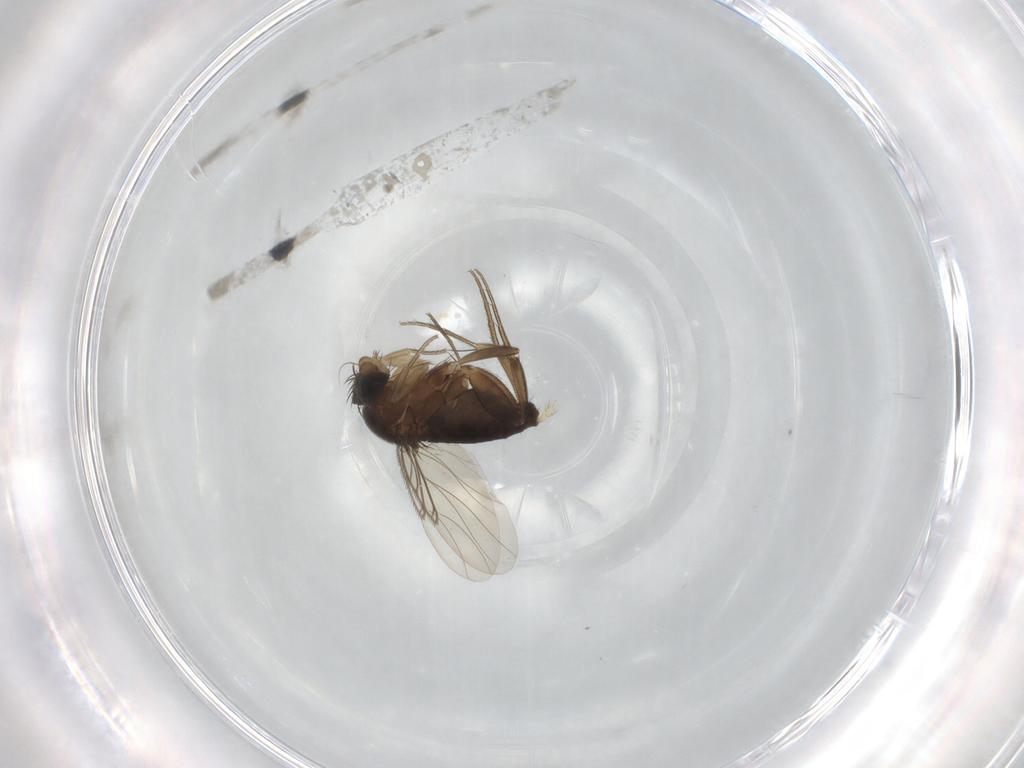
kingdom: Animalia
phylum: Arthropoda
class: Insecta
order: Diptera
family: Phoridae
